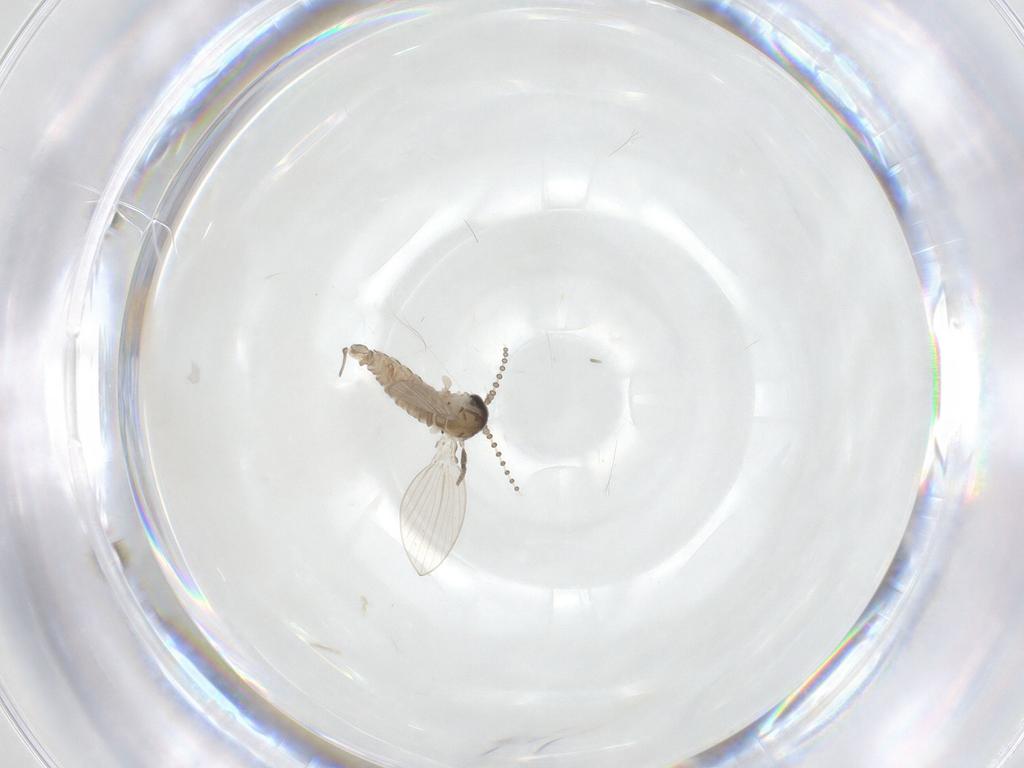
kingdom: Animalia
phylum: Arthropoda
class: Insecta
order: Diptera
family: Psychodidae
